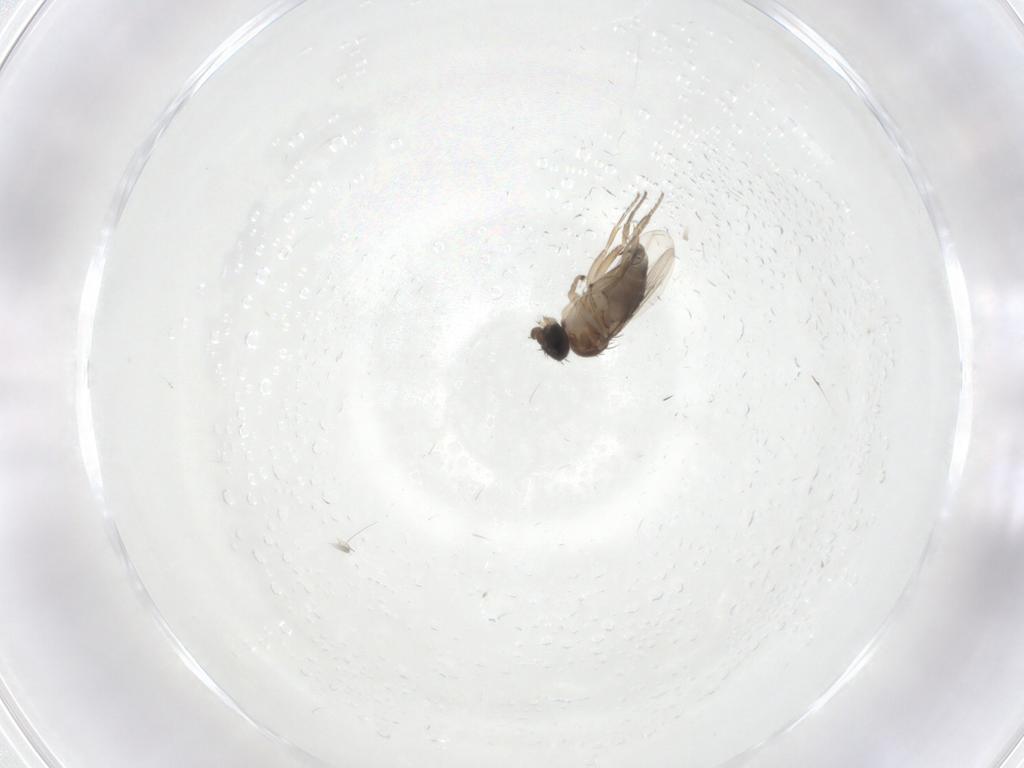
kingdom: Animalia
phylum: Arthropoda
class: Insecta
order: Diptera
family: Phoridae
